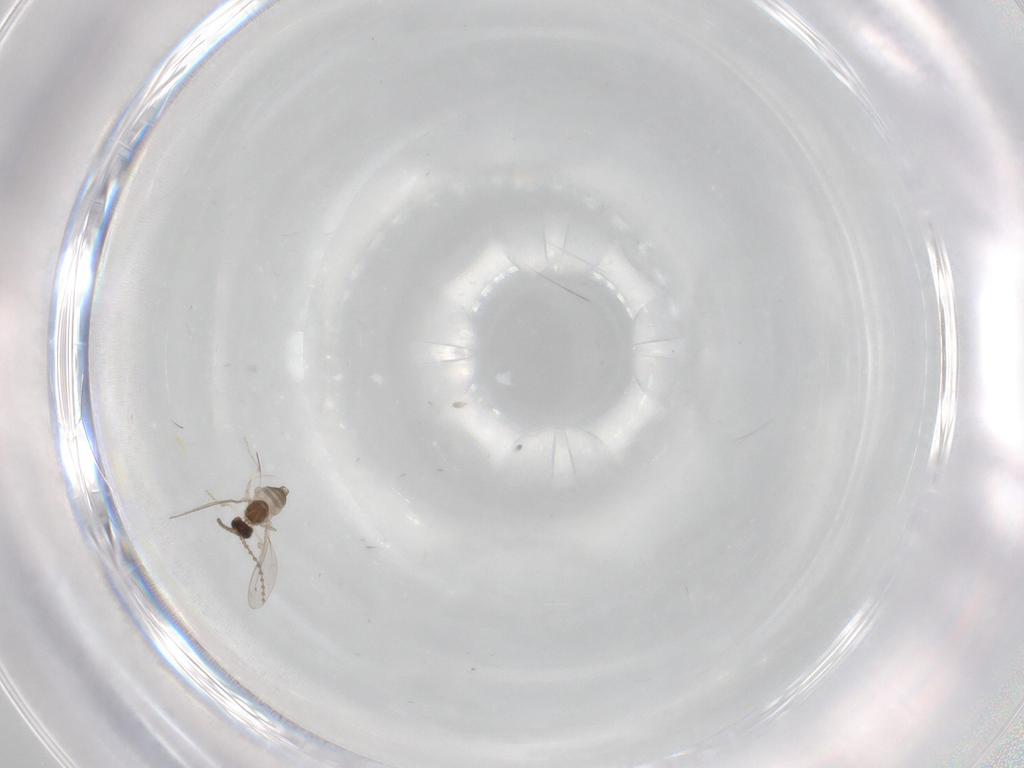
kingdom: Animalia
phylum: Arthropoda
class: Insecta
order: Diptera
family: Cecidomyiidae
